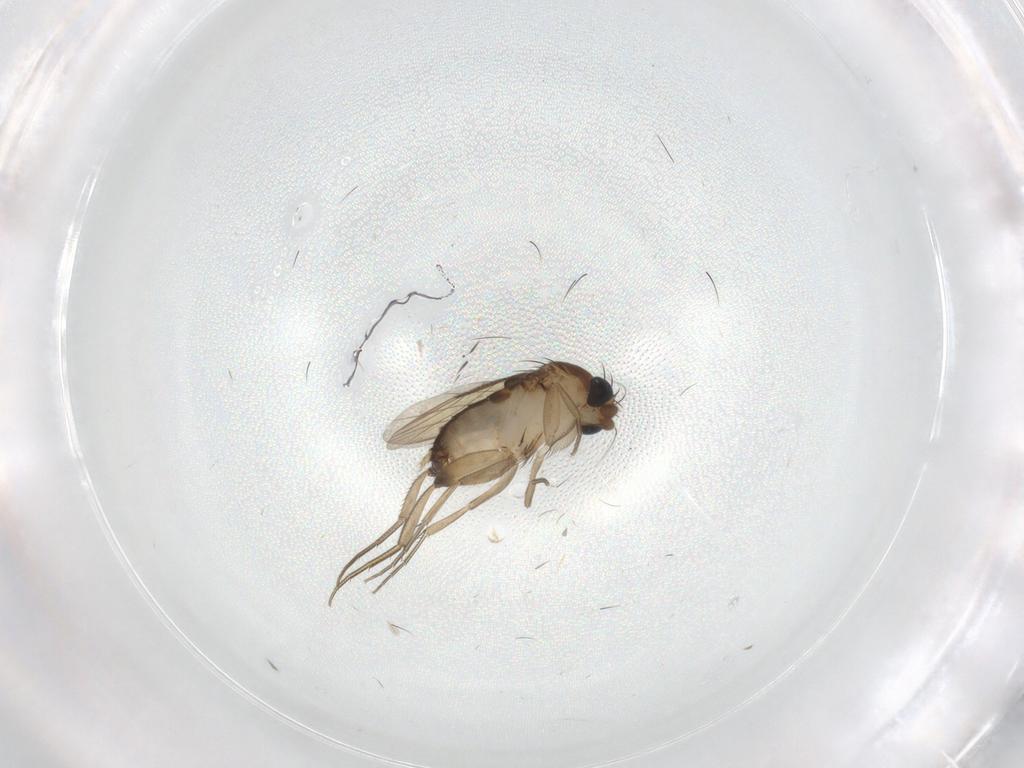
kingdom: Animalia
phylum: Arthropoda
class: Insecta
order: Diptera
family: Phoridae
